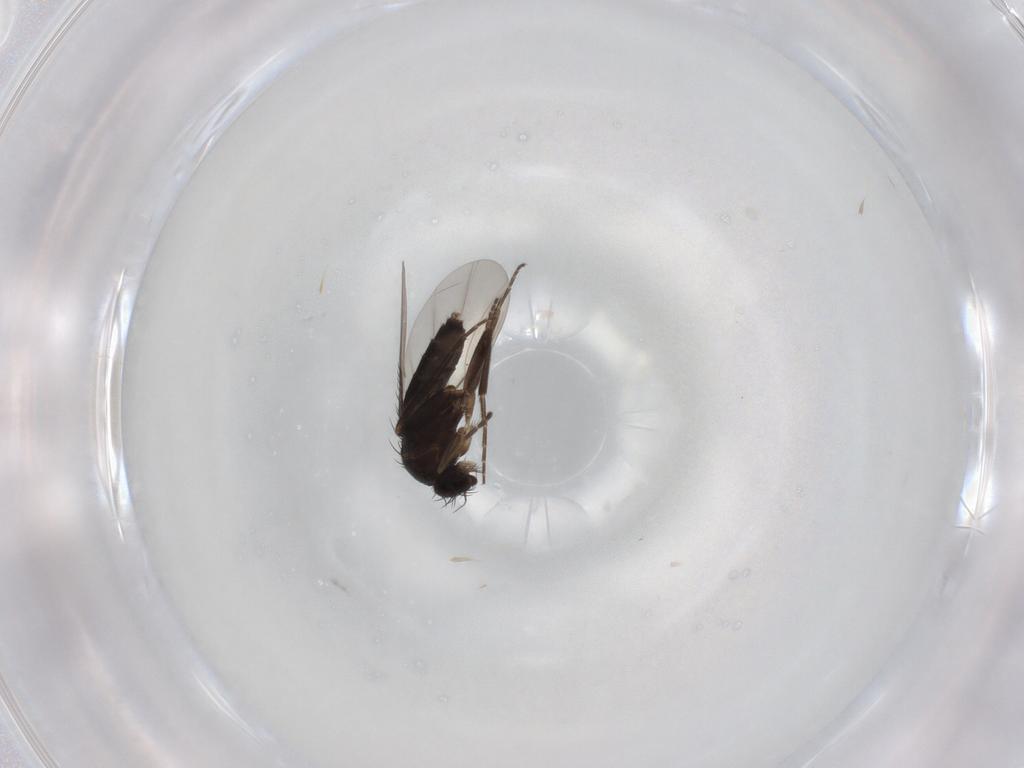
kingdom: Animalia
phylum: Arthropoda
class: Insecta
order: Diptera
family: Phoridae
